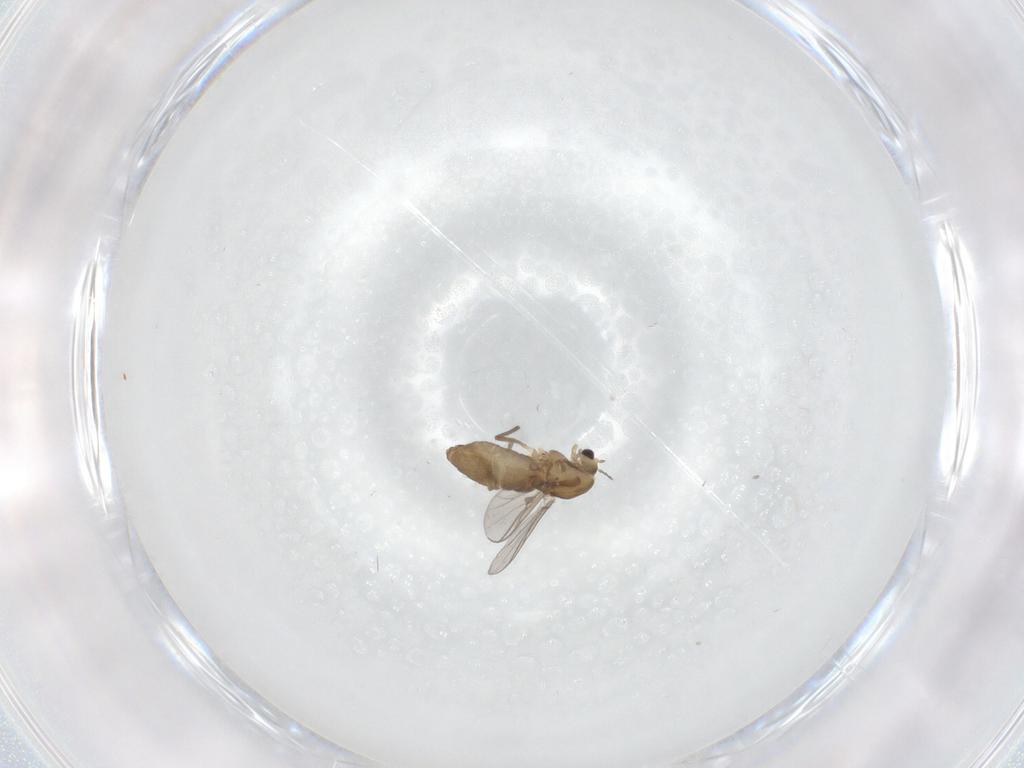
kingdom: Animalia
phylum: Arthropoda
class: Insecta
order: Diptera
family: Chironomidae
